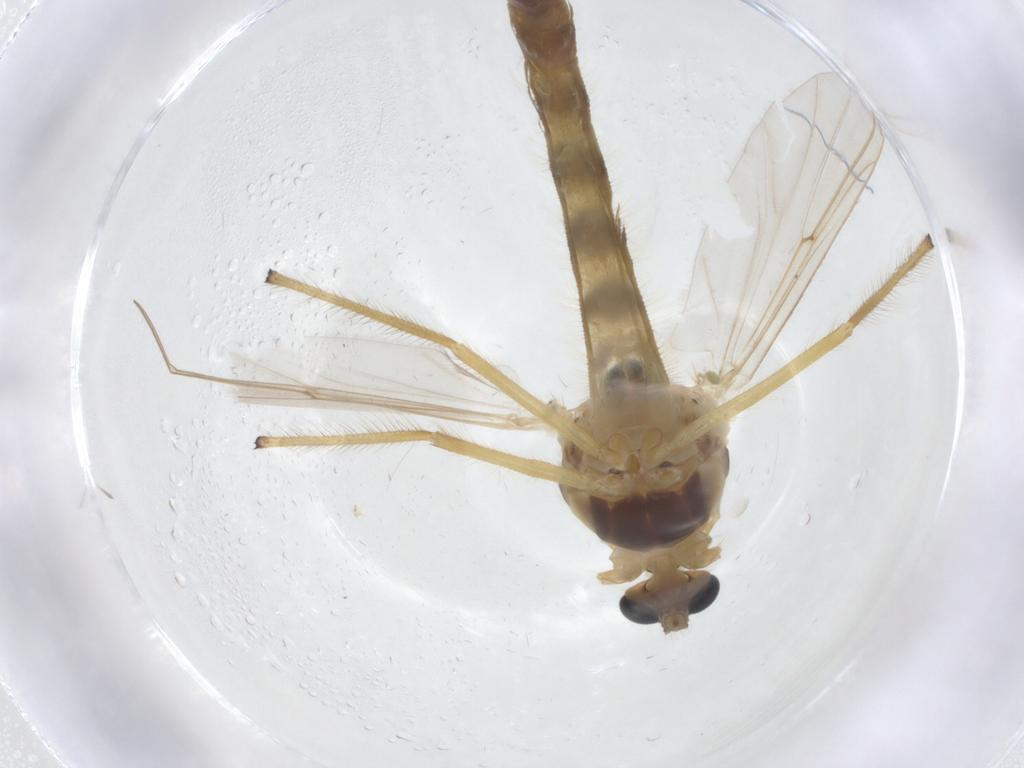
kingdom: Animalia
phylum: Arthropoda
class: Insecta
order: Diptera
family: Chironomidae
